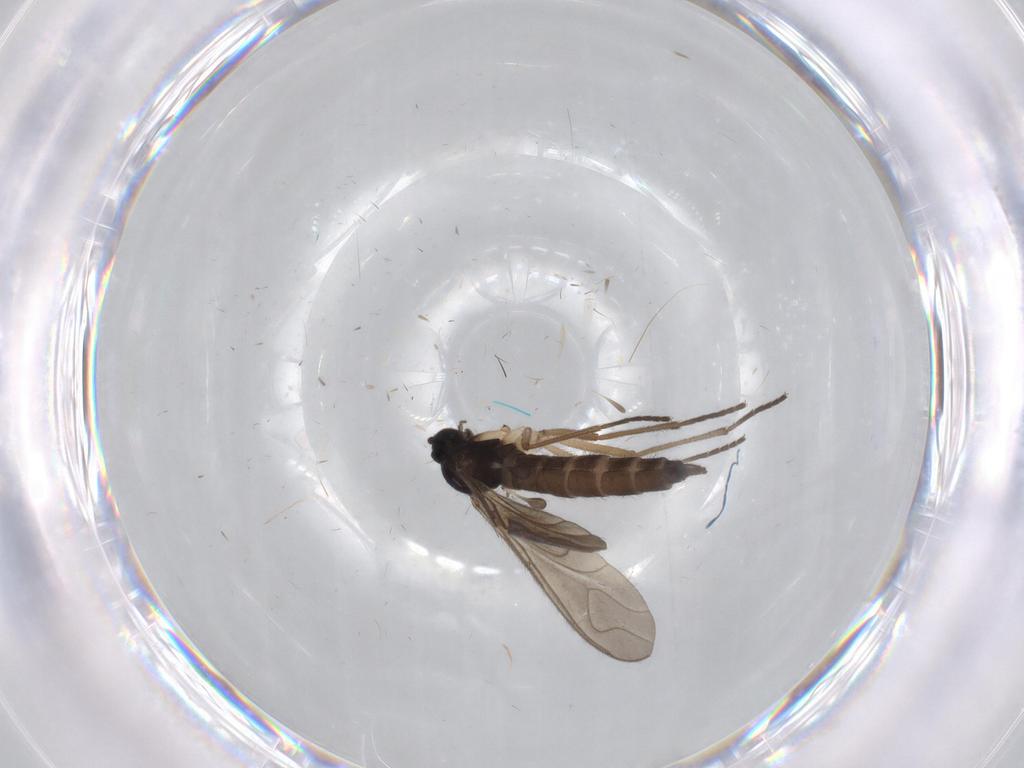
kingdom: Animalia
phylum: Arthropoda
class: Insecta
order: Diptera
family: Sciaridae
